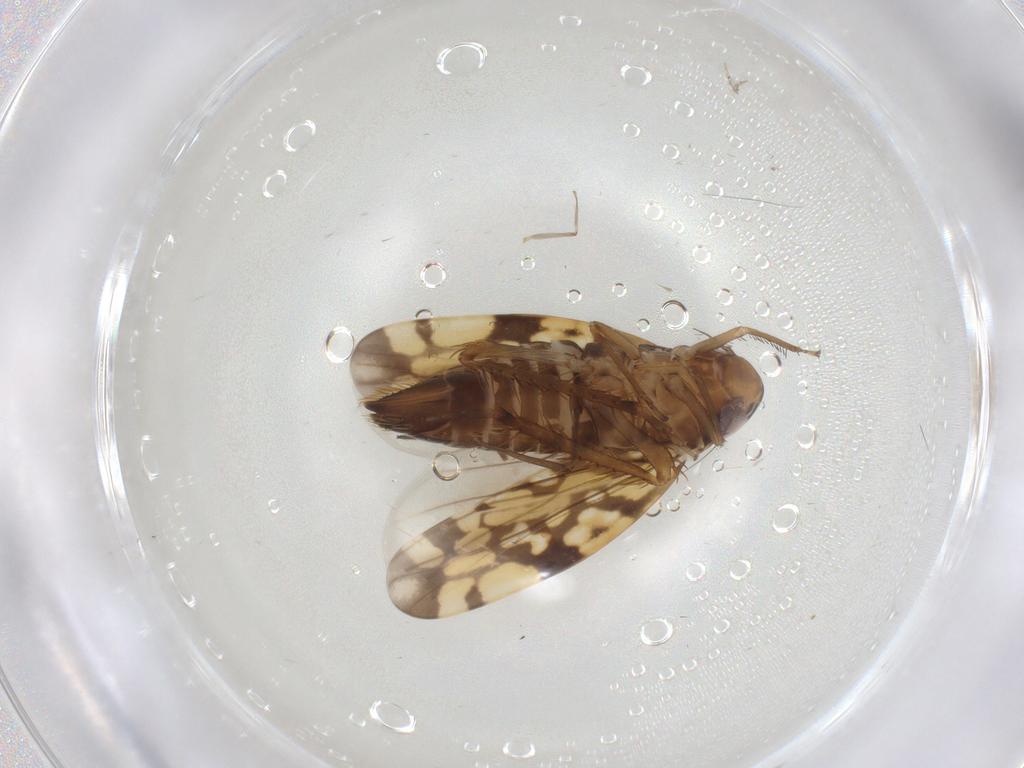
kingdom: Animalia
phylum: Arthropoda
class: Insecta
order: Hemiptera
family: Cicadellidae
